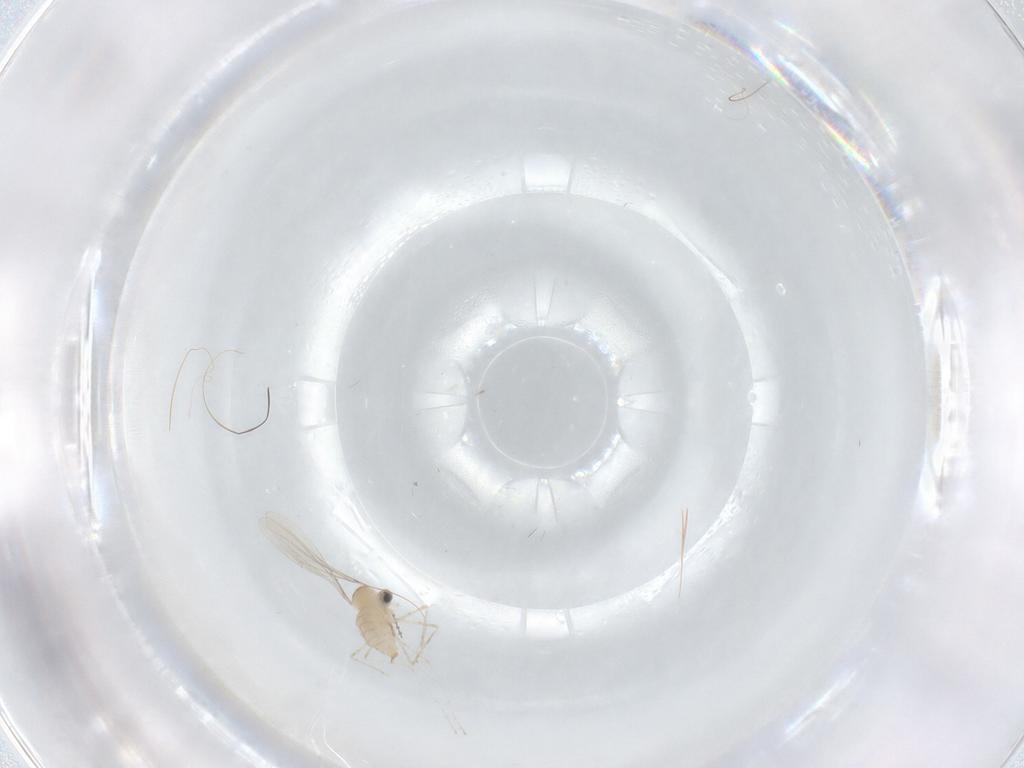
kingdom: Animalia
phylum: Arthropoda
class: Insecta
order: Diptera
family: Cecidomyiidae
